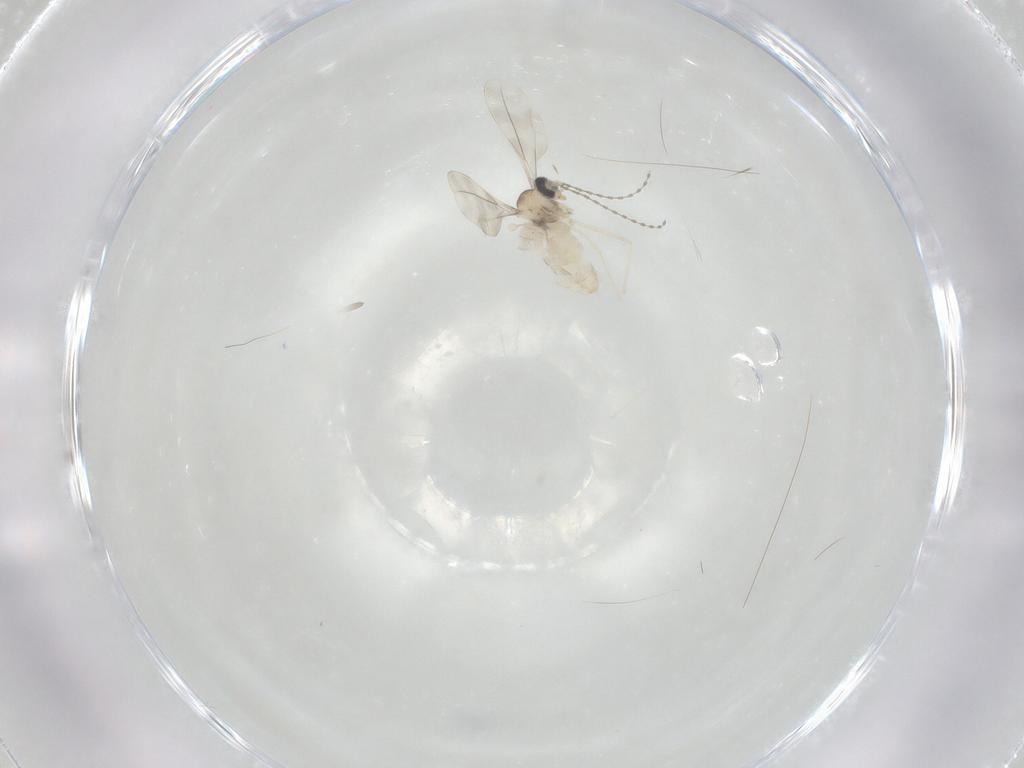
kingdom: Animalia
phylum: Arthropoda
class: Insecta
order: Diptera
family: Cecidomyiidae
